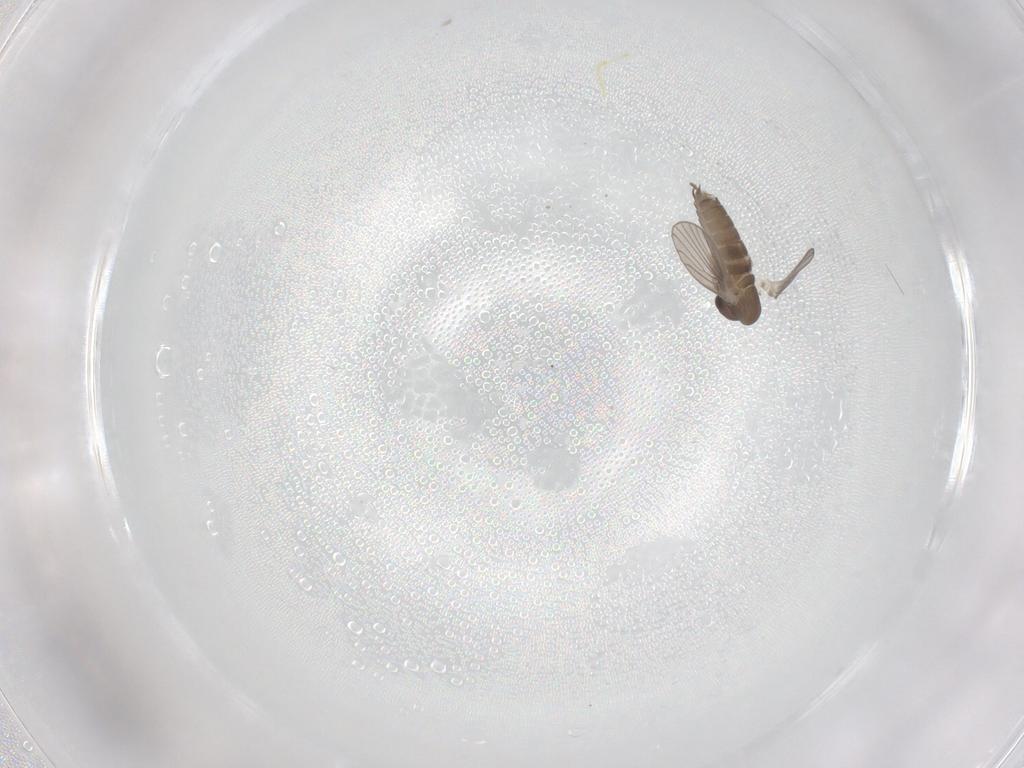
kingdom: Animalia
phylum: Arthropoda
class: Insecta
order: Diptera
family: Psychodidae
